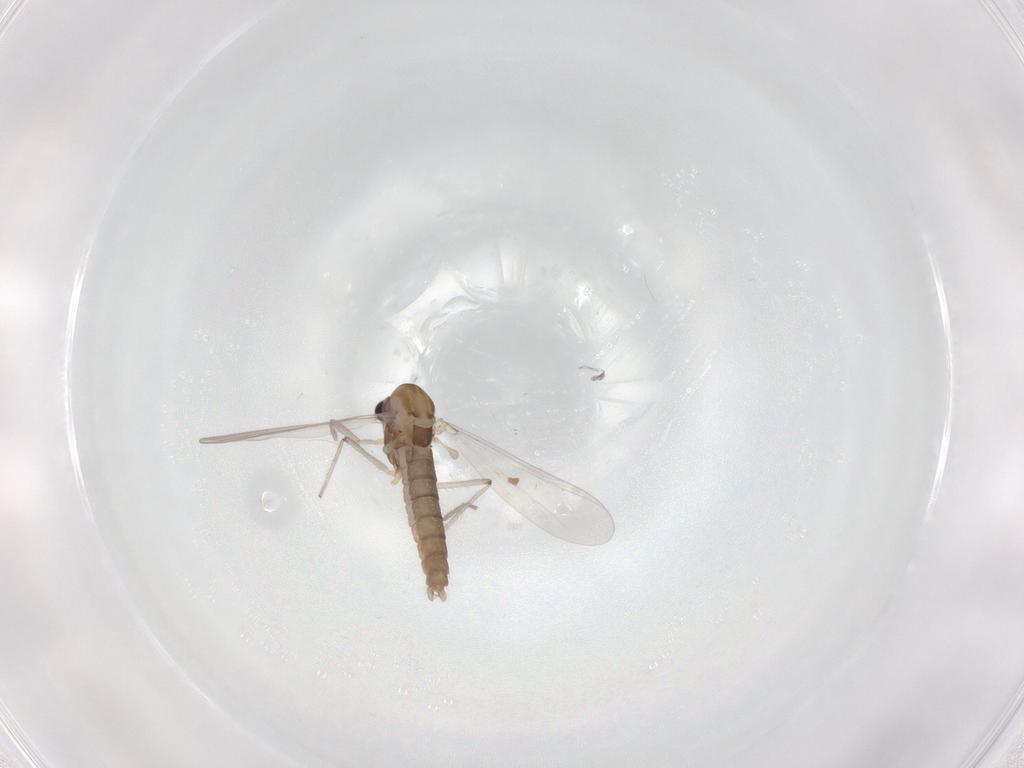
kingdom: Animalia
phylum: Arthropoda
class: Insecta
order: Diptera
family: Chironomidae
